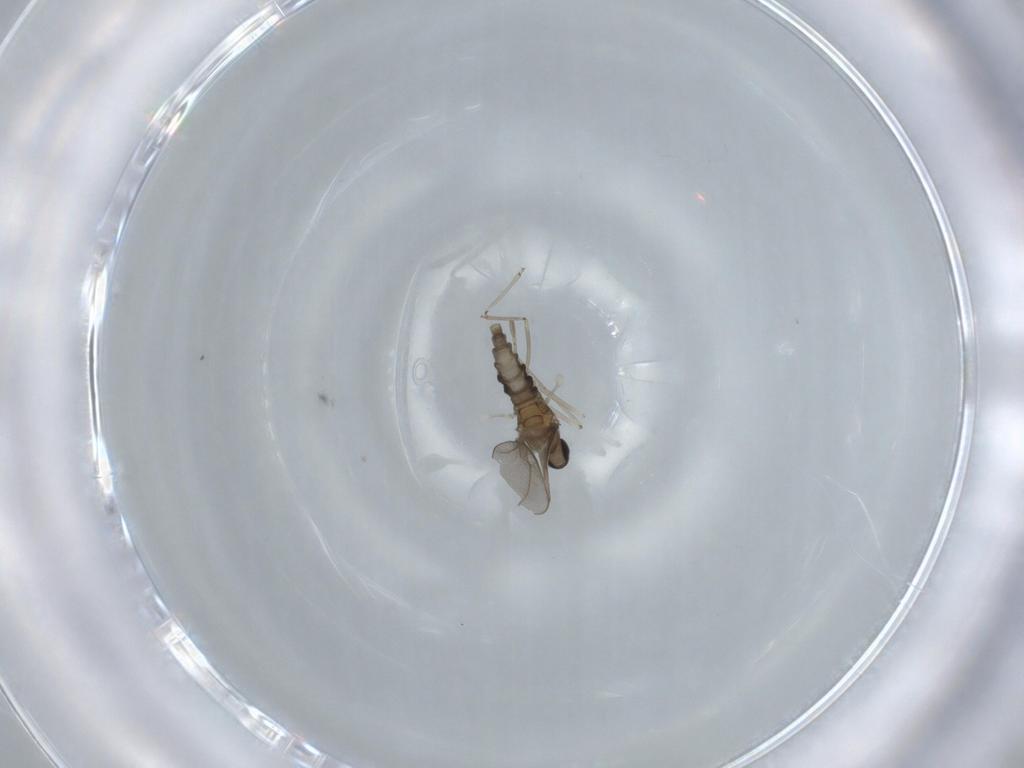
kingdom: Animalia
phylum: Arthropoda
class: Insecta
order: Diptera
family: Cecidomyiidae
